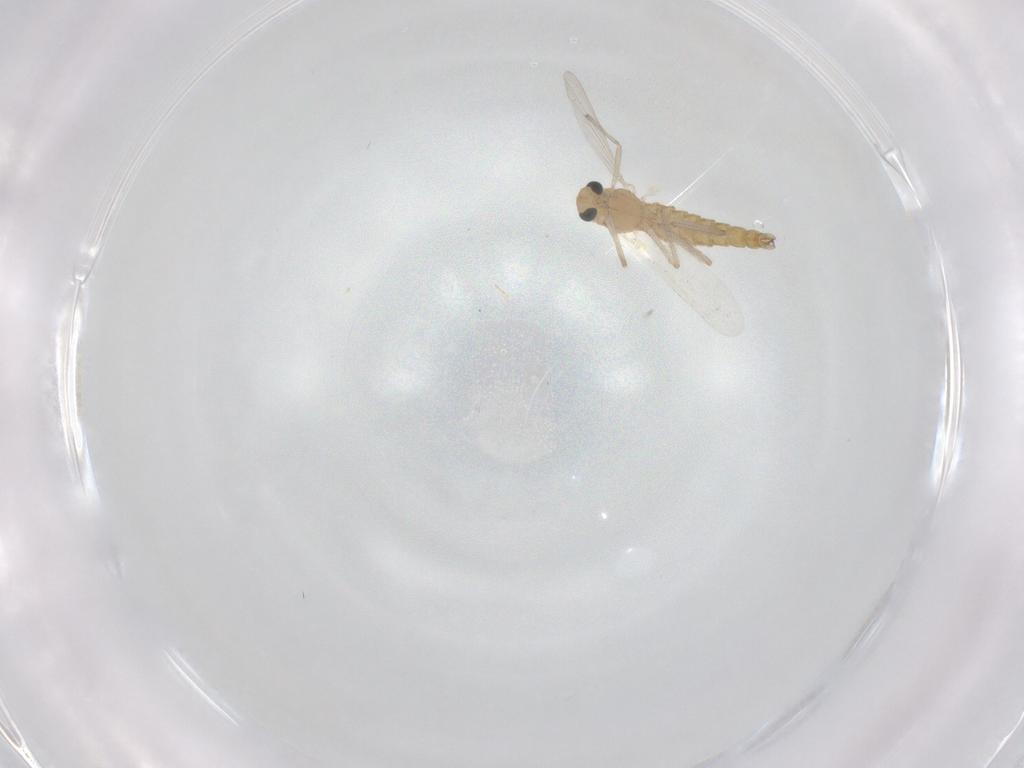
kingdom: Animalia
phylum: Arthropoda
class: Insecta
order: Diptera
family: Chironomidae
